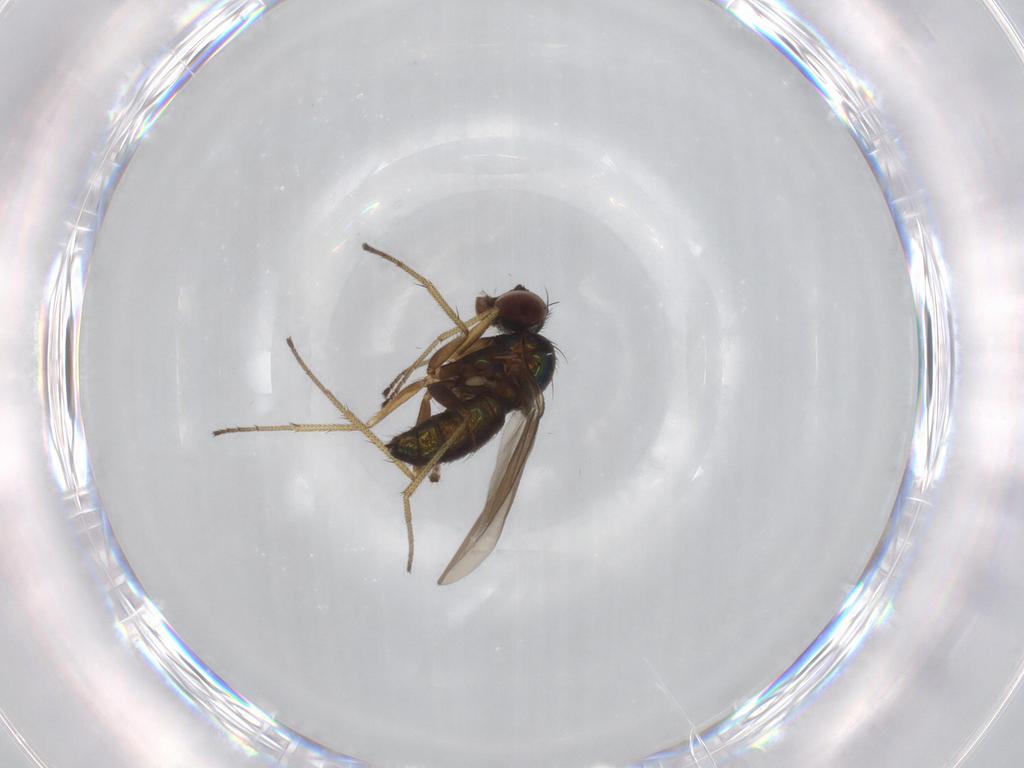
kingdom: Animalia
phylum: Arthropoda
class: Insecta
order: Diptera
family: Dolichopodidae
